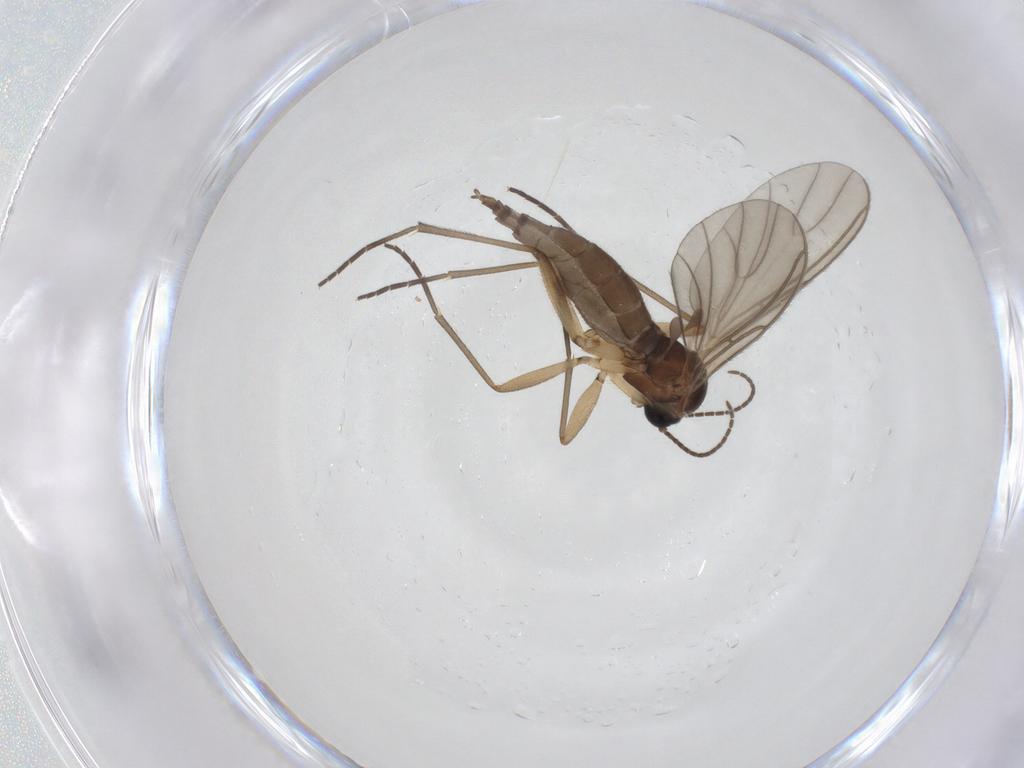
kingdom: Animalia
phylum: Arthropoda
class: Insecta
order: Diptera
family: Sciaridae
